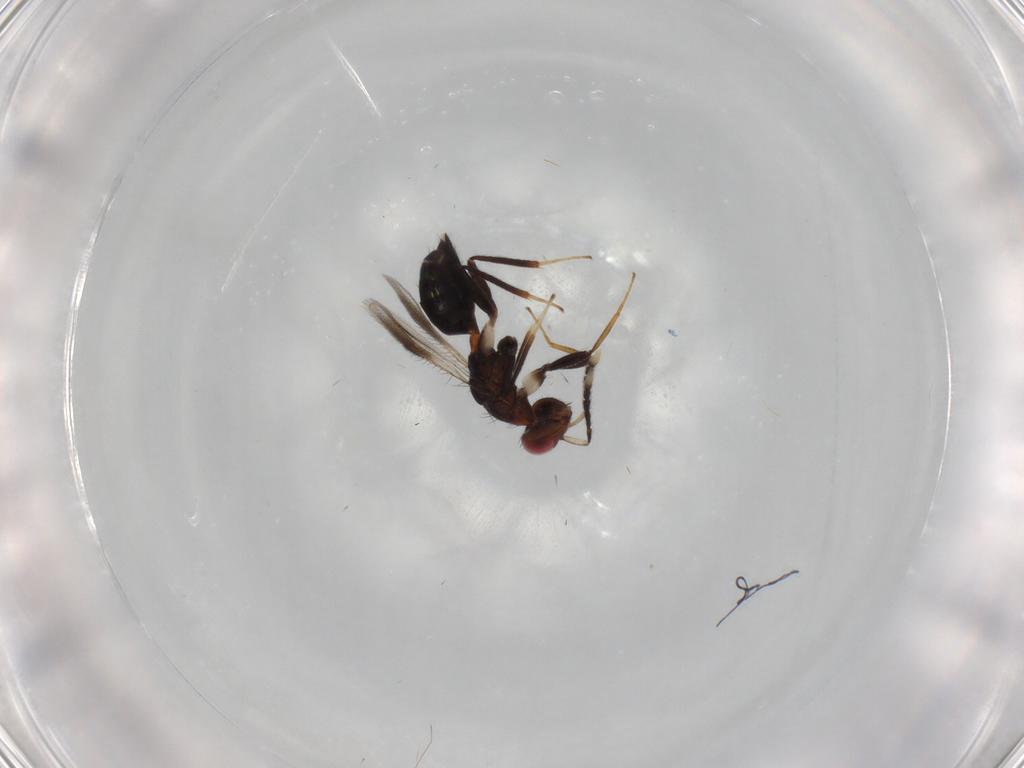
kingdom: Animalia
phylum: Arthropoda
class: Insecta
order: Hymenoptera
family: Eulophidae
